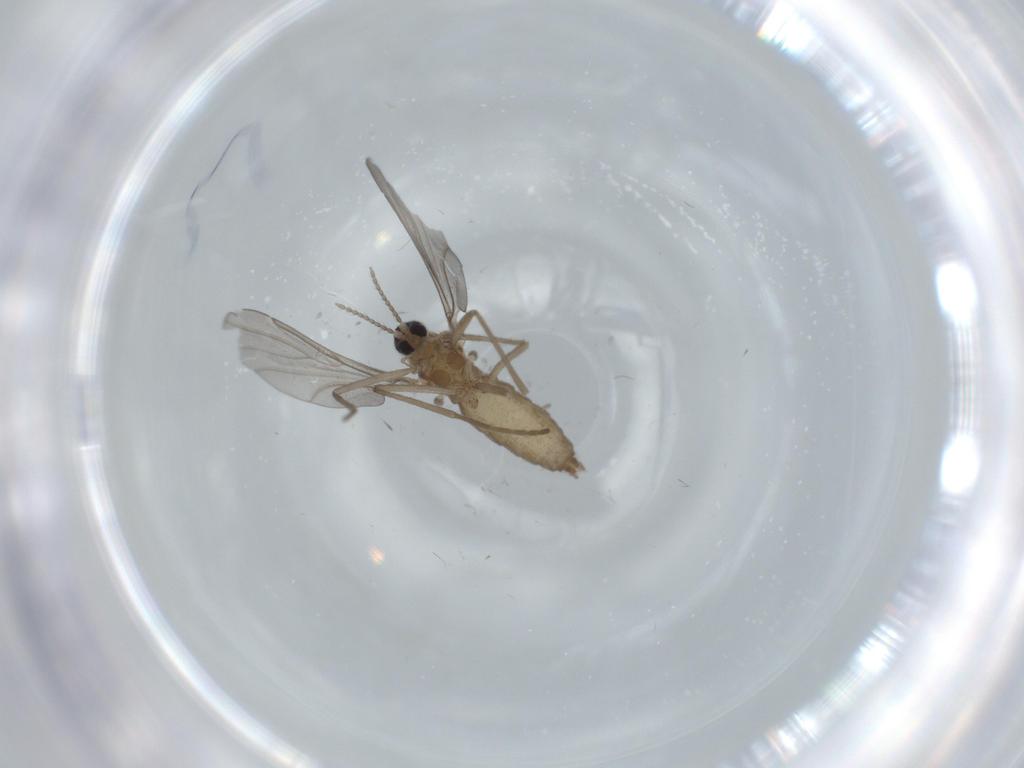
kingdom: Animalia
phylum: Arthropoda
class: Insecta
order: Diptera
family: Cecidomyiidae
